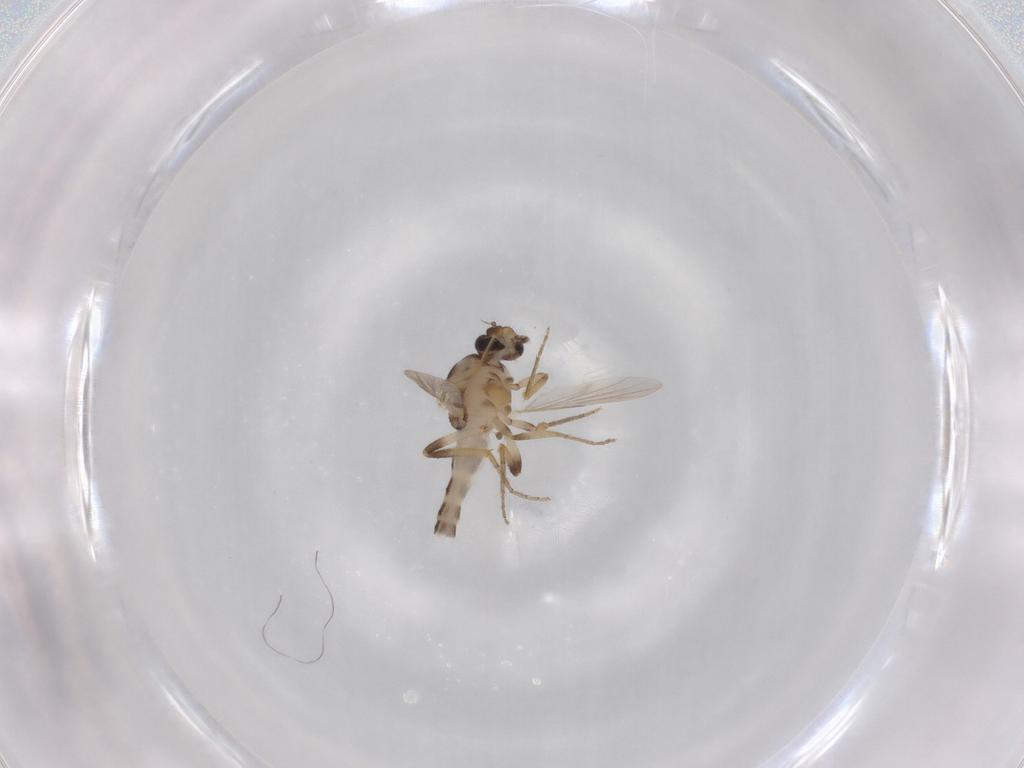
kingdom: Animalia
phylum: Arthropoda
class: Insecta
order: Diptera
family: Ceratopogonidae
